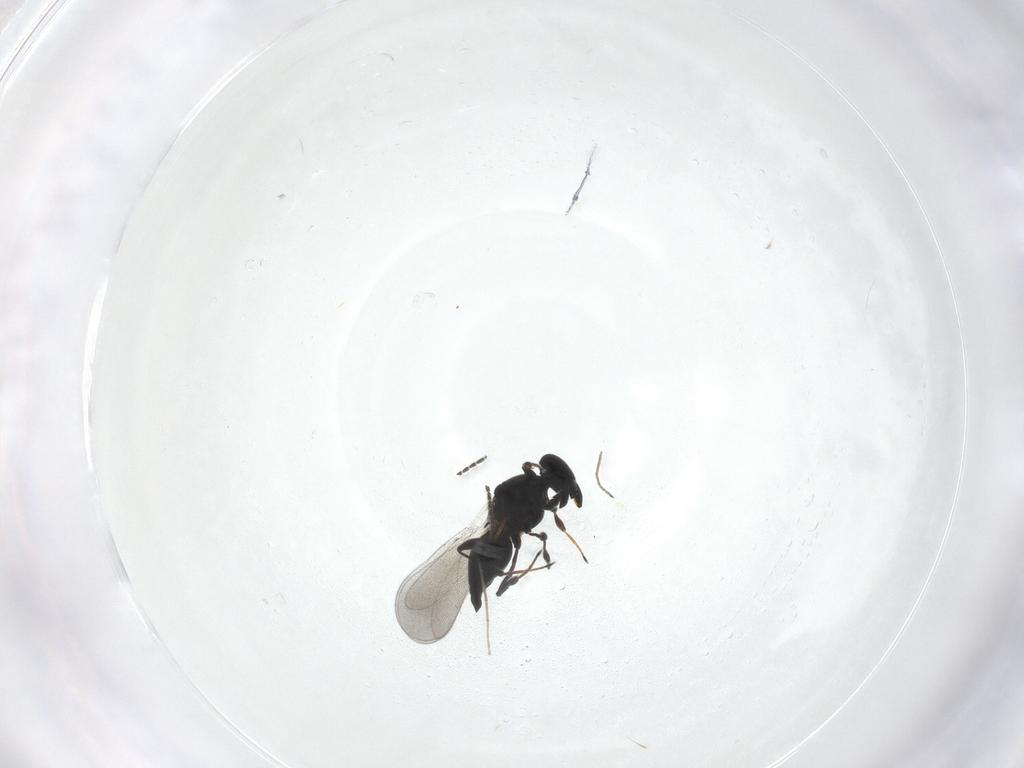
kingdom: Animalia
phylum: Arthropoda
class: Insecta
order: Hymenoptera
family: Platygastridae
